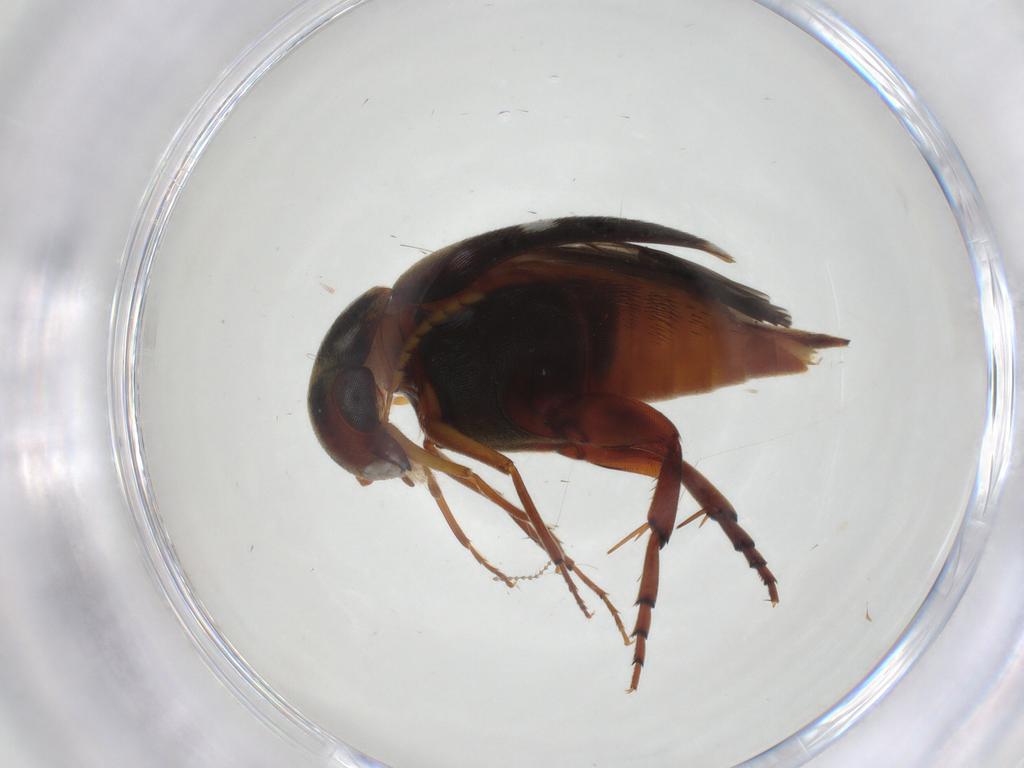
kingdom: Animalia
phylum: Arthropoda
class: Insecta
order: Coleoptera
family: Mordellidae
